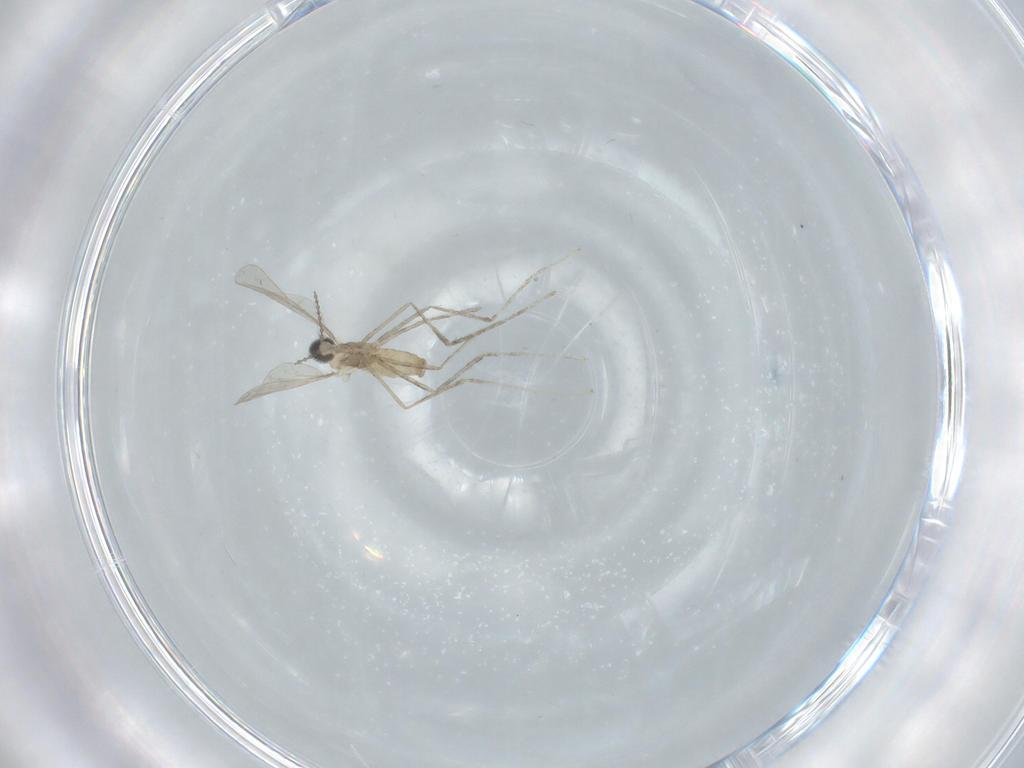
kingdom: Animalia
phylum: Arthropoda
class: Insecta
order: Diptera
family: Cecidomyiidae
